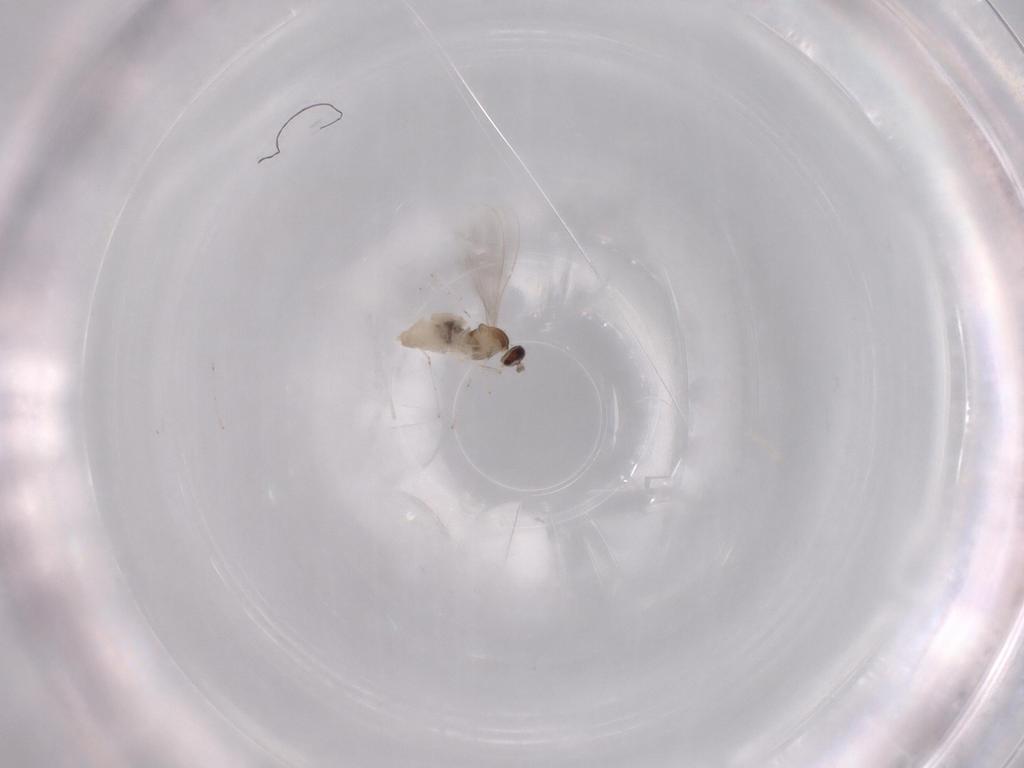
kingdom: Animalia
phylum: Arthropoda
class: Insecta
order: Diptera
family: Cecidomyiidae
